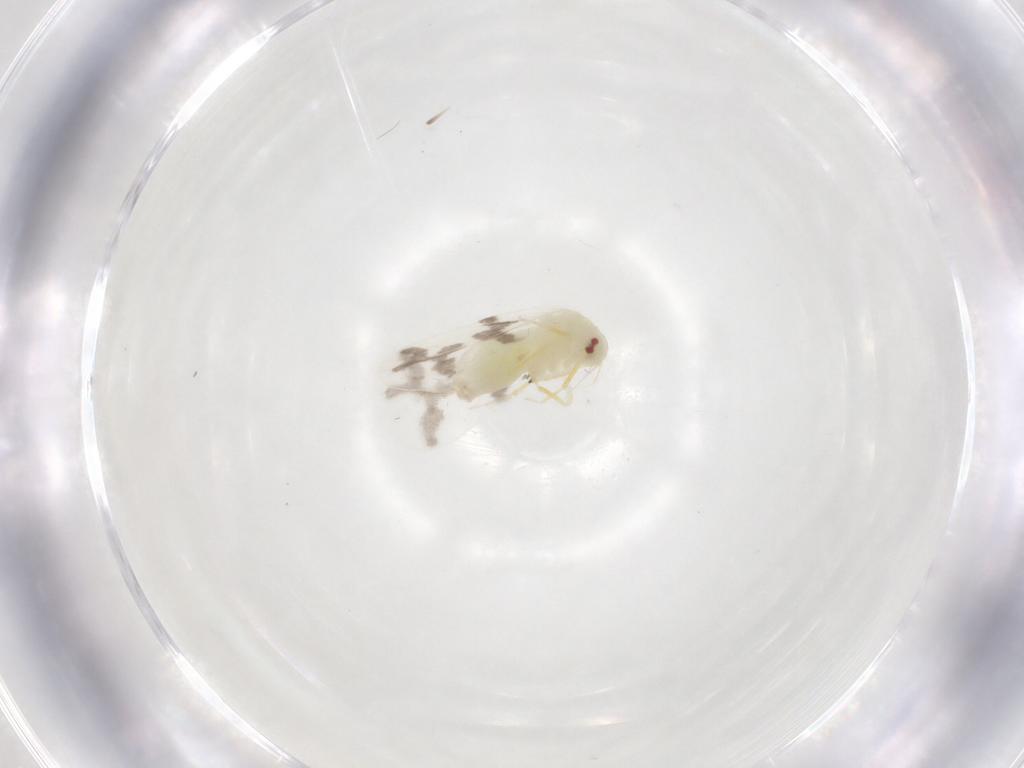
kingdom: Animalia
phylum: Arthropoda
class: Insecta
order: Hemiptera
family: Aleyrodidae
